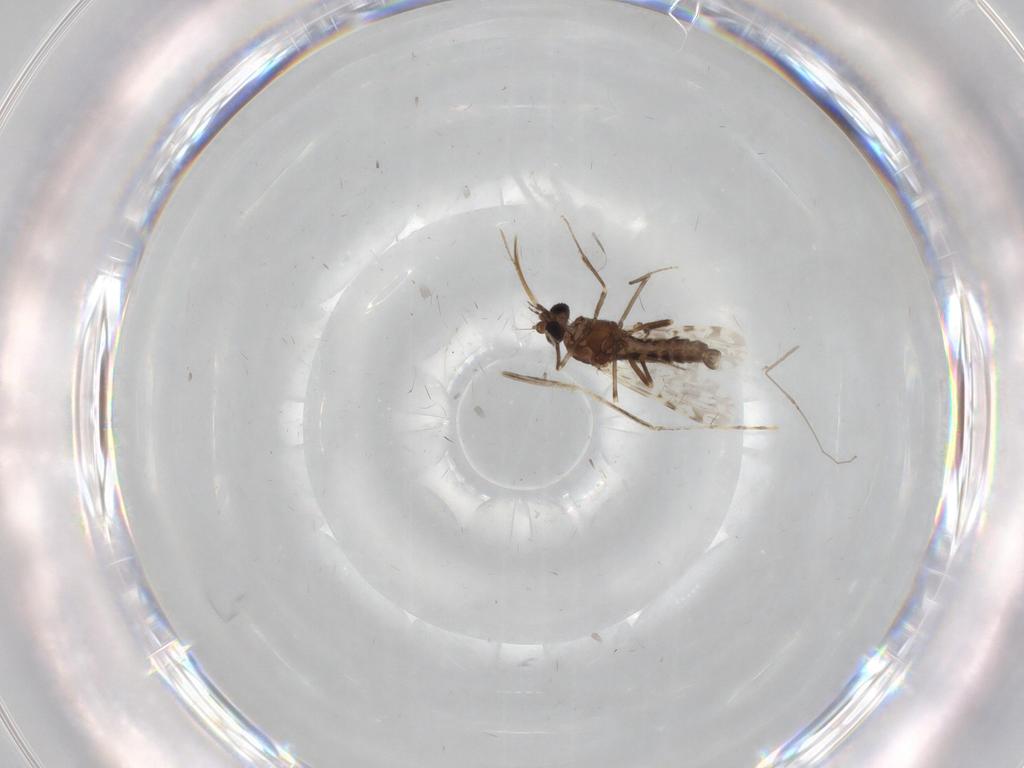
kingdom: Animalia
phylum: Arthropoda
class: Insecta
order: Diptera
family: Ceratopogonidae
